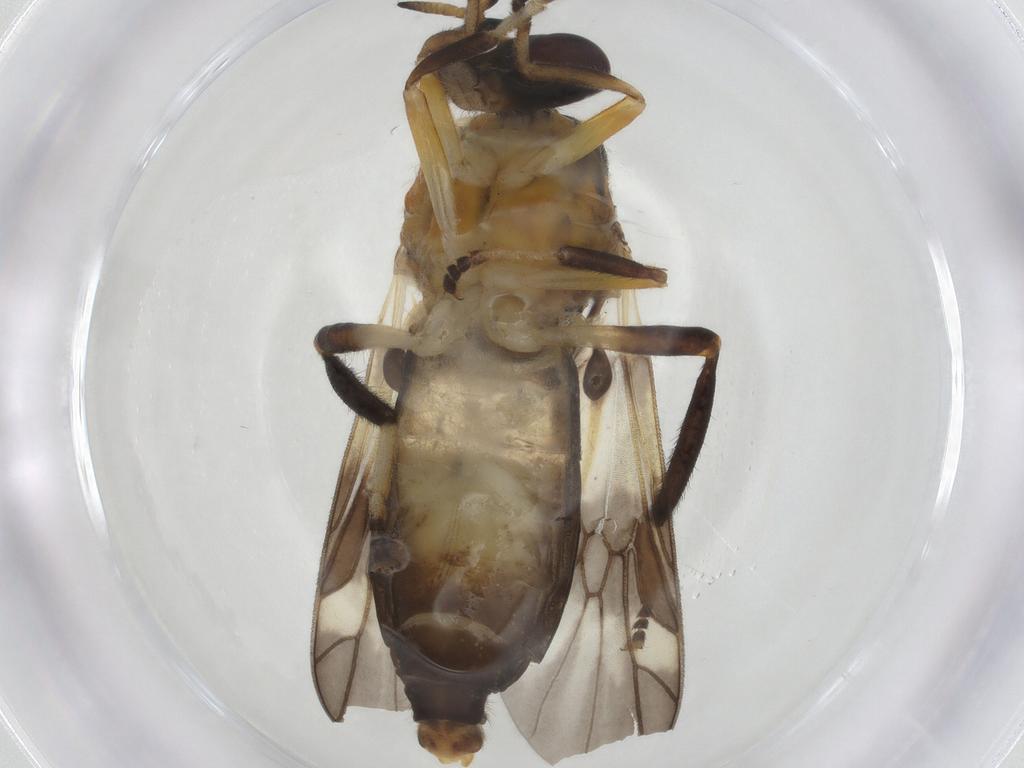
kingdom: Animalia
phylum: Arthropoda
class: Insecta
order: Diptera
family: Stratiomyidae
